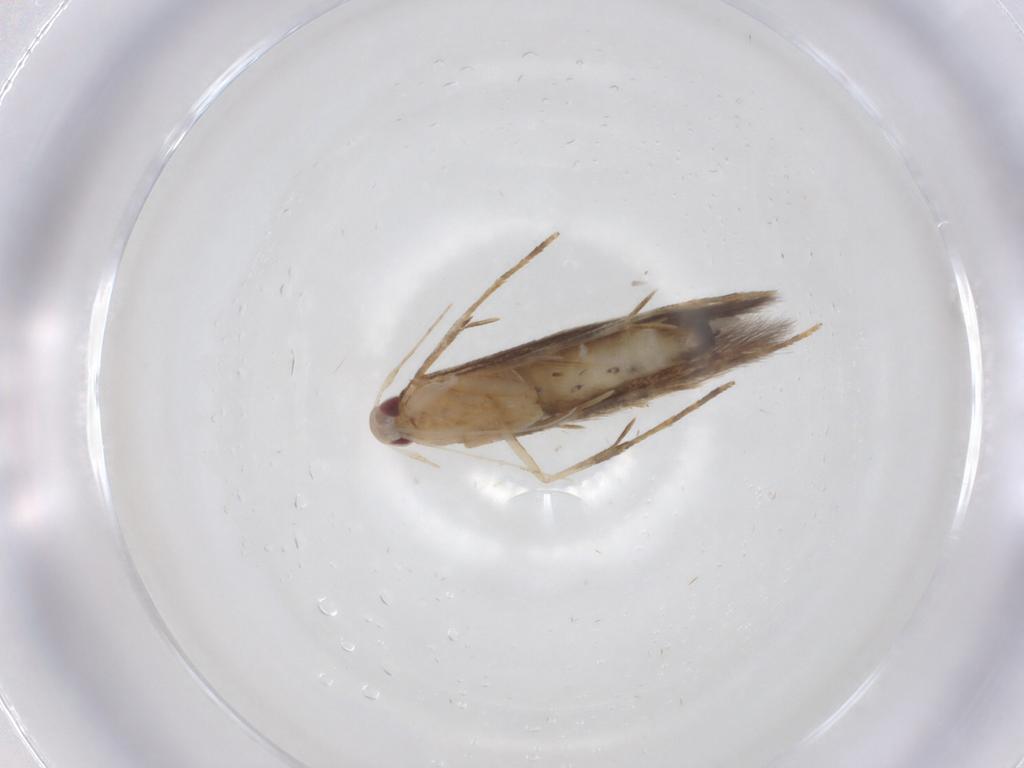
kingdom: Animalia
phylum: Arthropoda
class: Insecta
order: Lepidoptera
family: Cosmopterigidae
